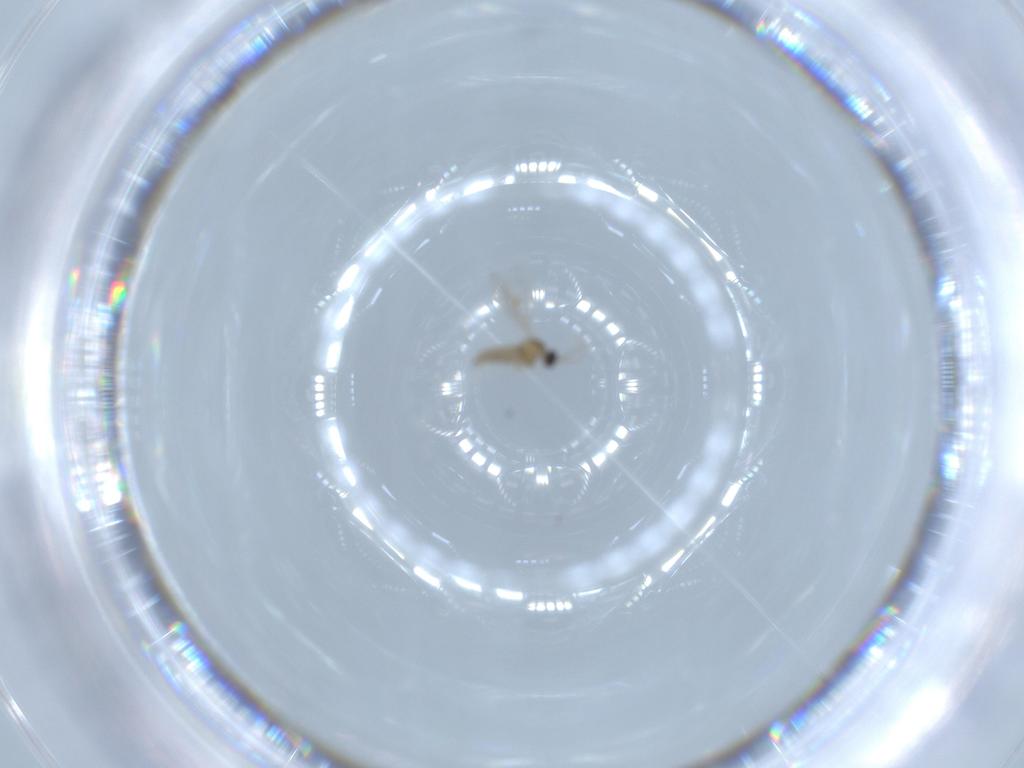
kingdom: Animalia
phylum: Arthropoda
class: Insecta
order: Diptera
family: Cecidomyiidae
